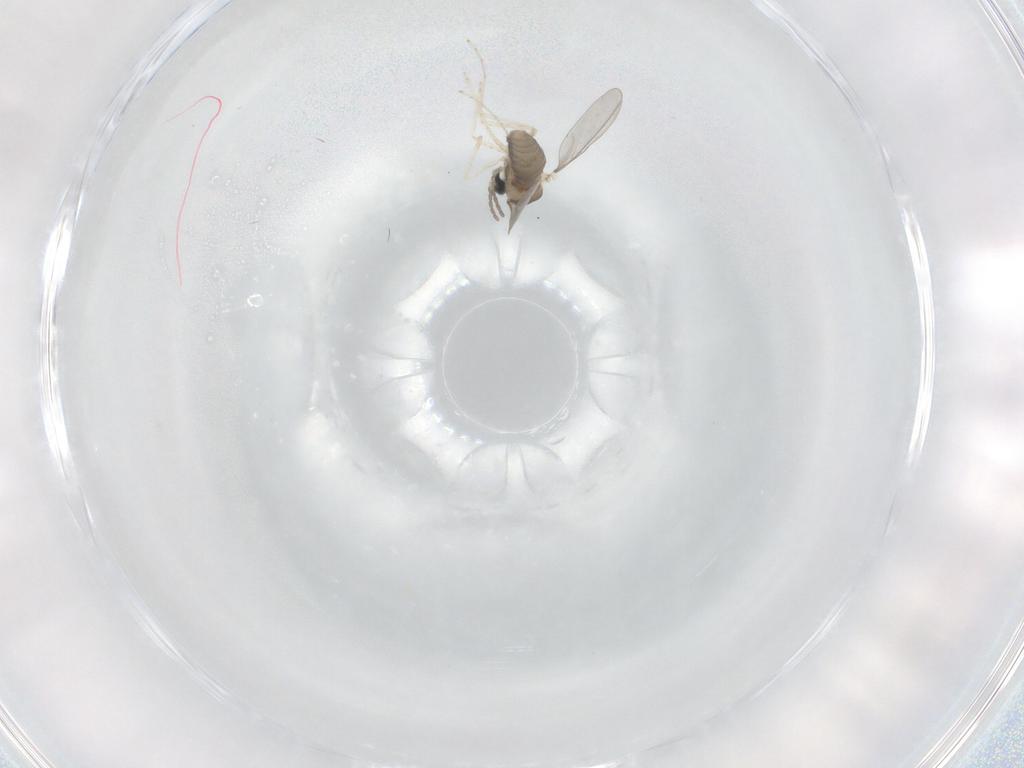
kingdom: Animalia
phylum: Arthropoda
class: Insecta
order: Diptera
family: Cecidomyiidae
